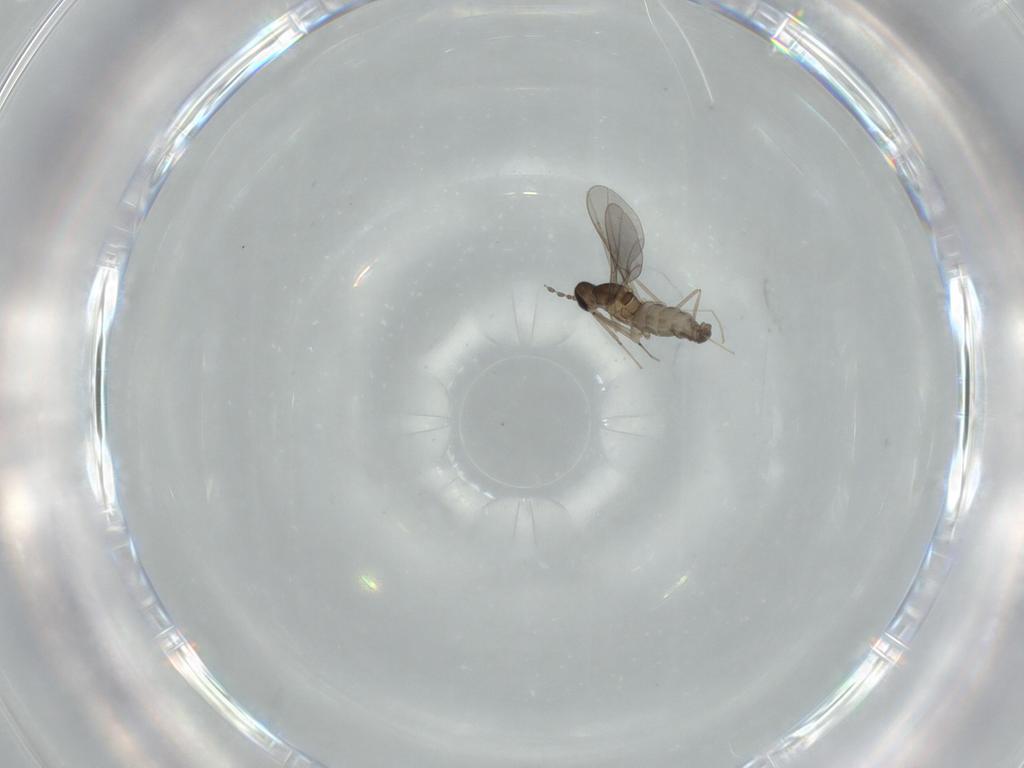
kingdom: Animalia
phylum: Arthropoda
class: Insecta
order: Diptera
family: Cecidomyiidae
